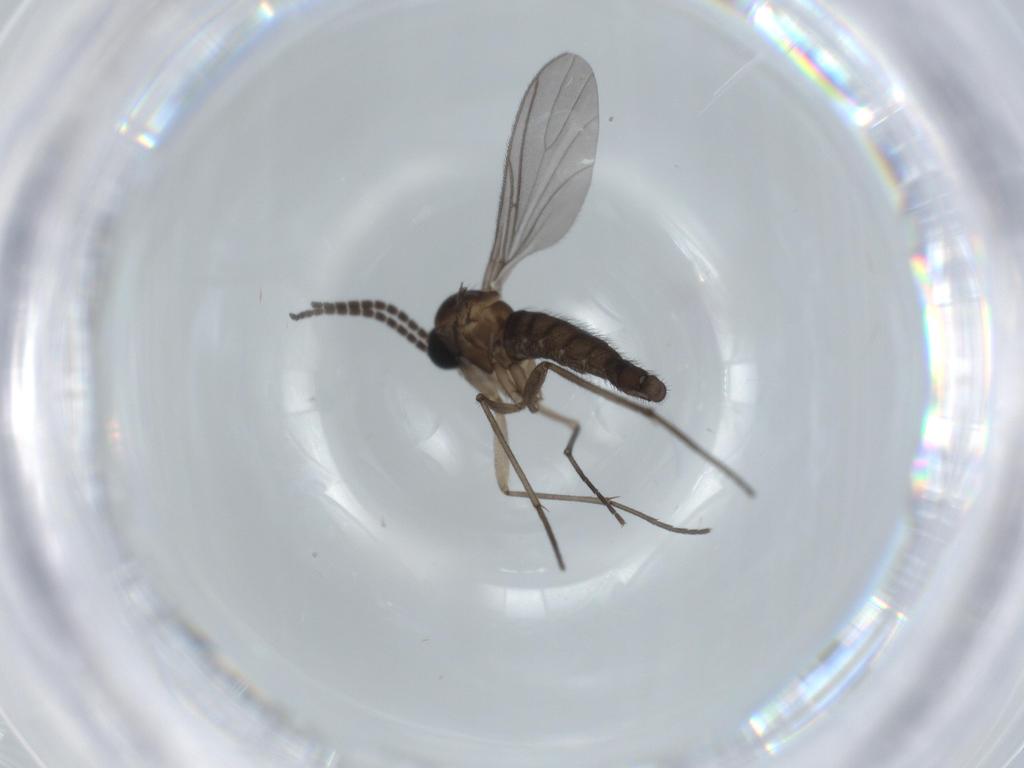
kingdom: Animalia
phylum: Arthropoda
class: Insecta
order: Diptera
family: Sciaridae
